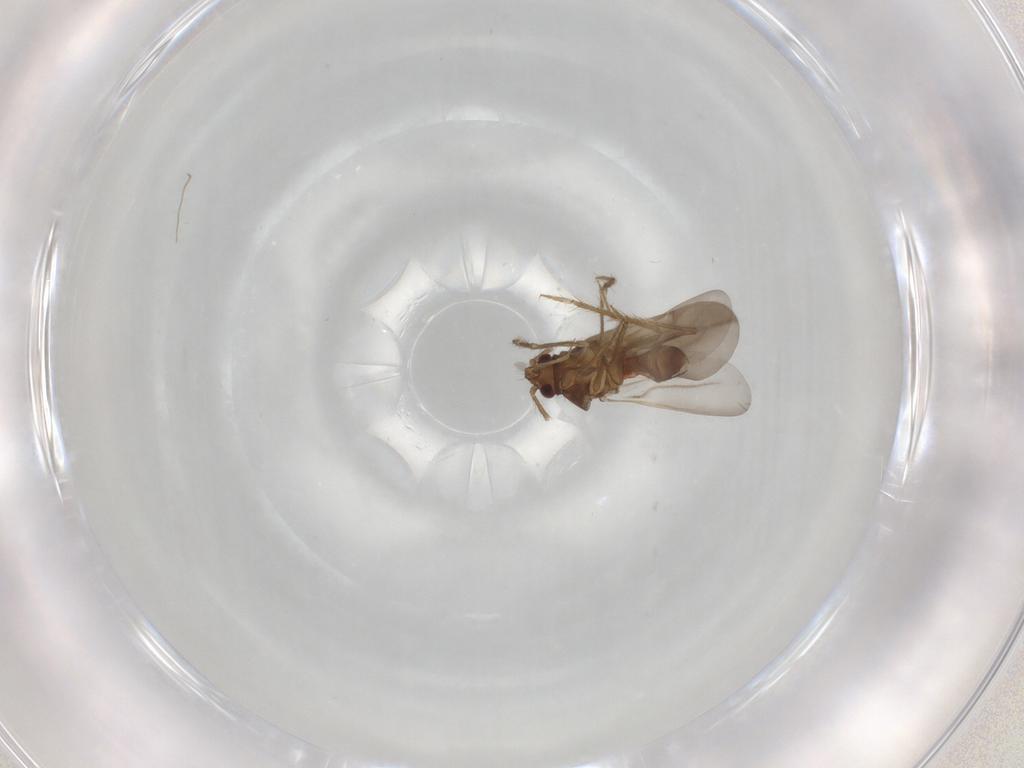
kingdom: Animalia
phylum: Arthropoda
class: Insecta
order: Hemiptera
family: Ceratocombidae
